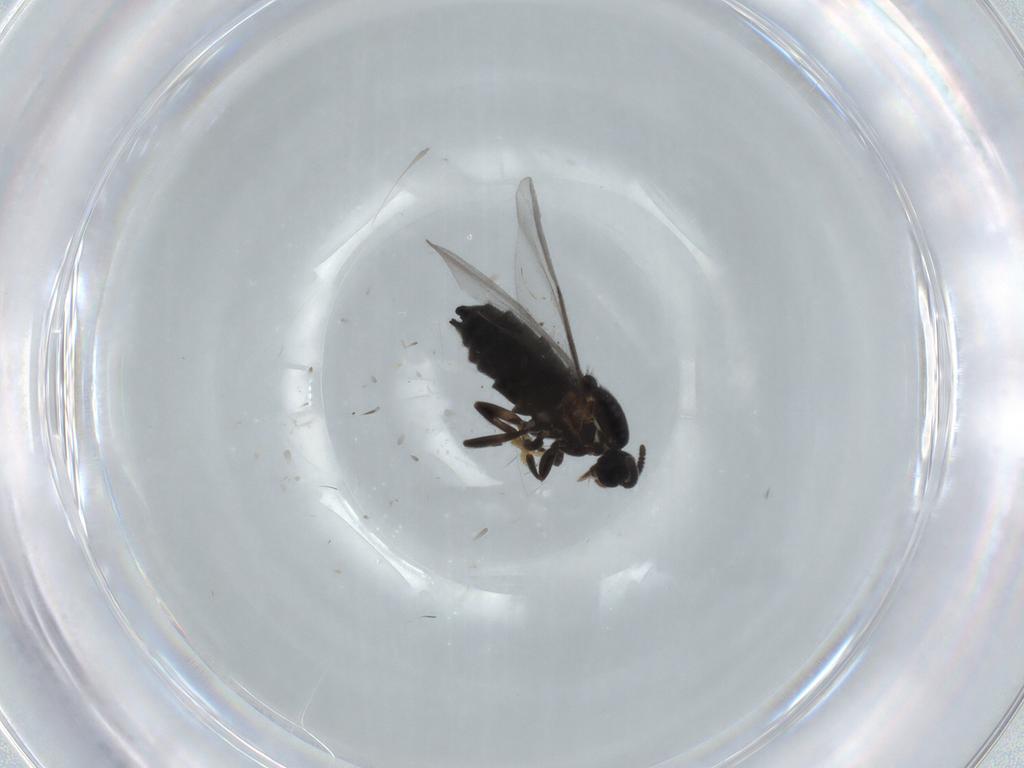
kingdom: Animalia
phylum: Arthropoda
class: Insecta
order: Diptera
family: Scatopsidae
